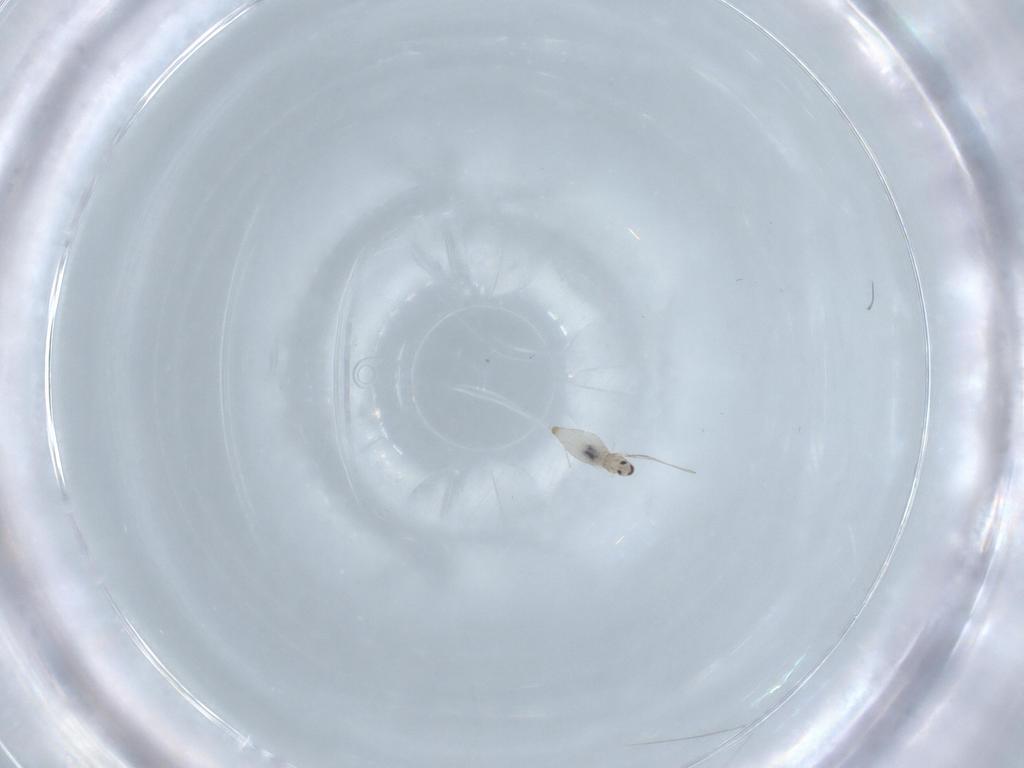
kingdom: Animalia
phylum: Arthropoda
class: Insecta
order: Diptera
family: Cecidomyiidae
